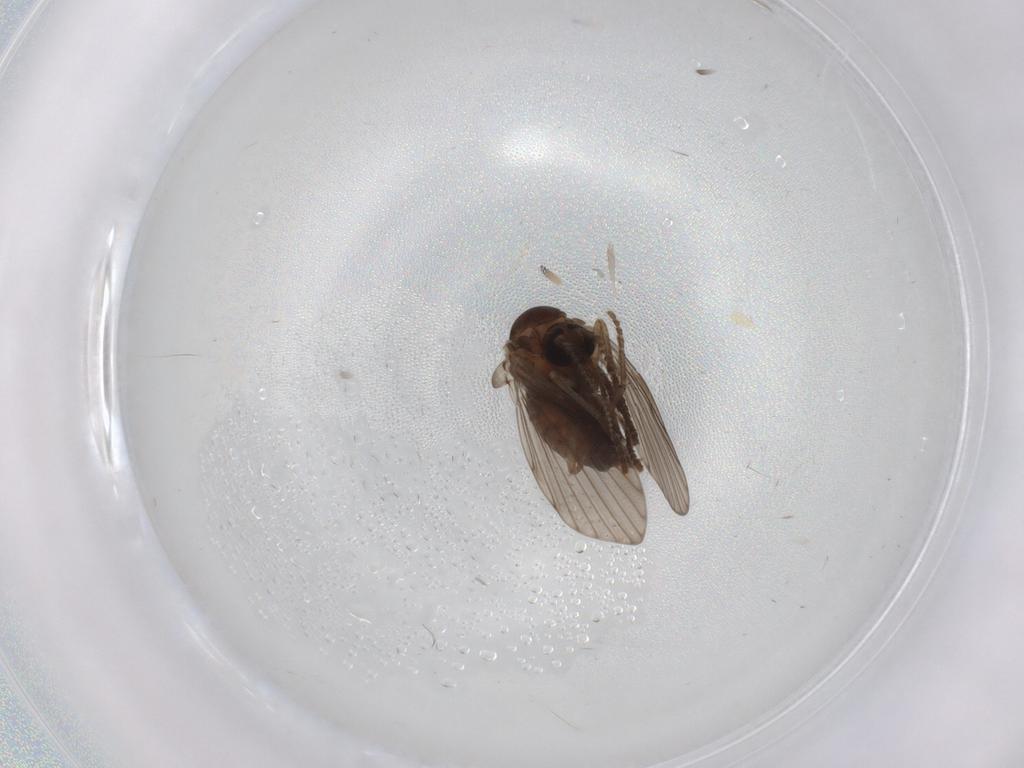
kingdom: Animalia
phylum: Arthropoda
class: Insecta
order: Diptera
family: Psychodidae
